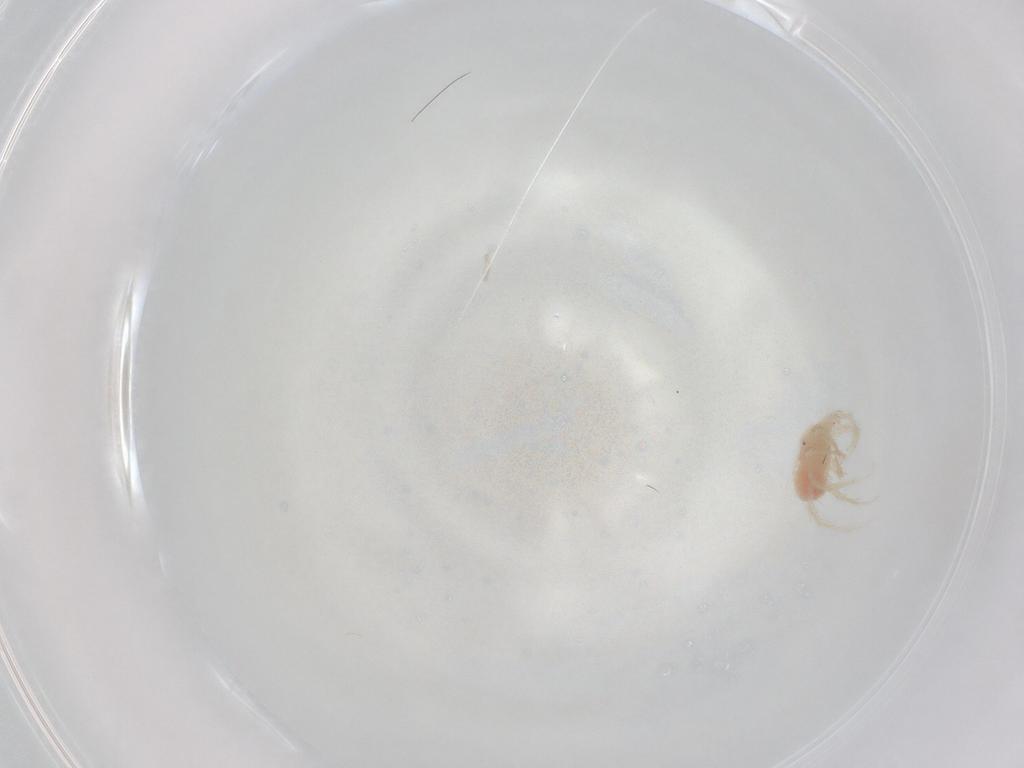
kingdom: Animalia
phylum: Arthropoda
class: Arachnida
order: Trombidiformes
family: Anystidae
